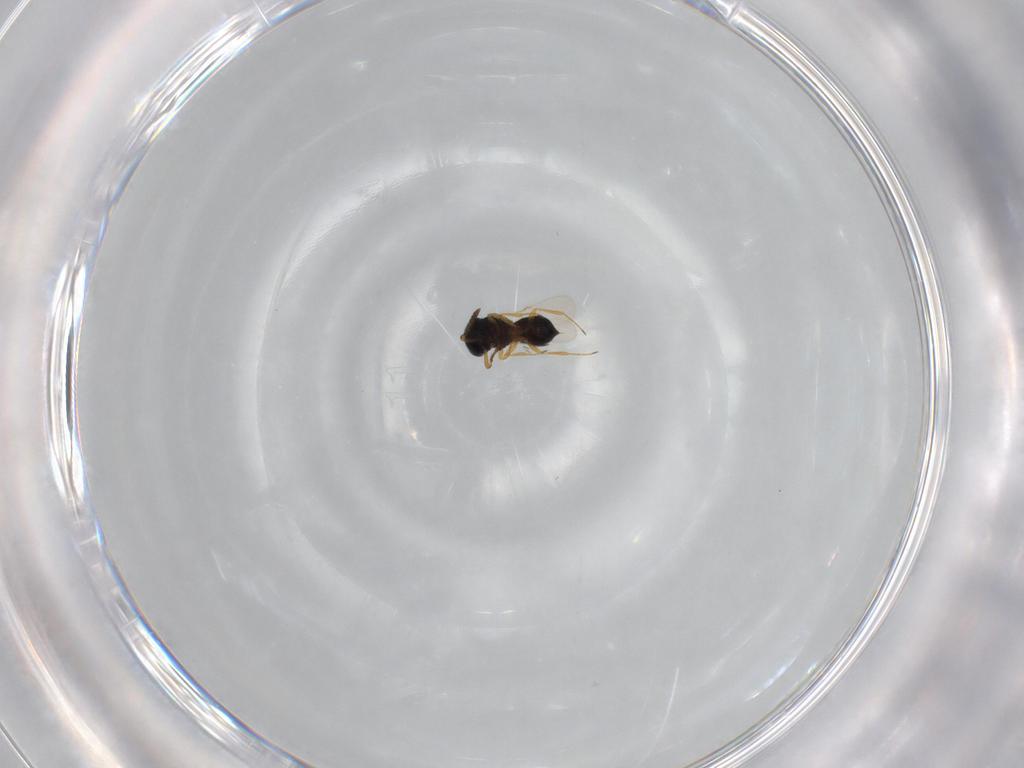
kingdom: Animalia
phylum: Arthropoda
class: Insecta
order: Hymenoptera
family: Scelionidae
